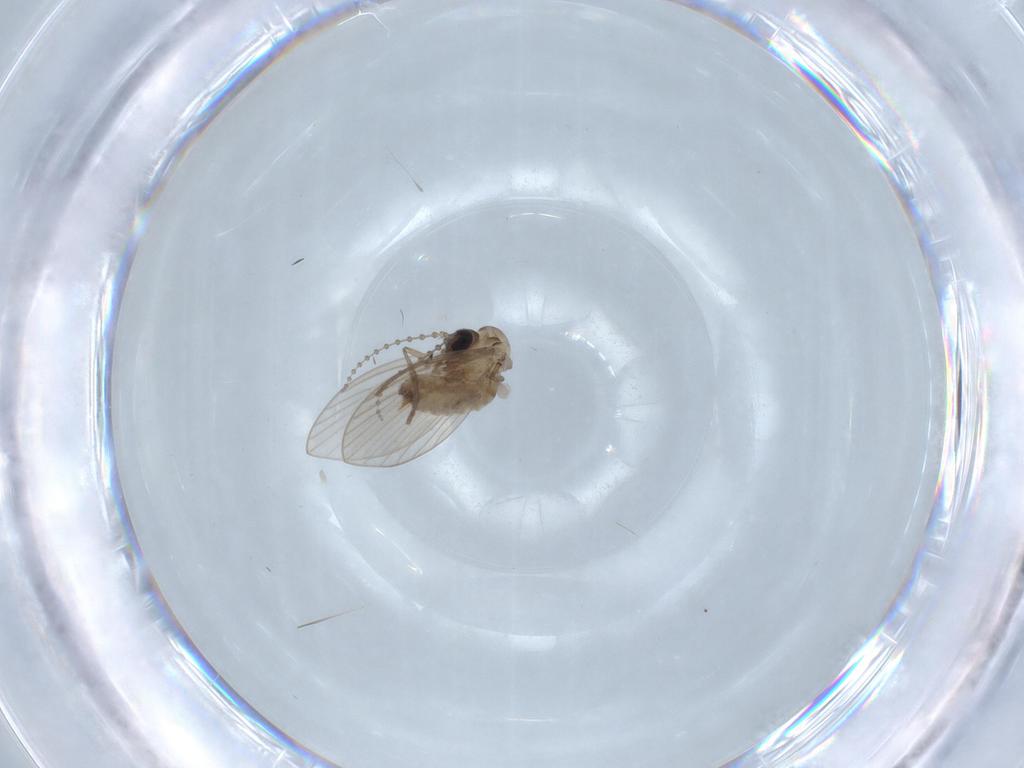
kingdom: Animalia
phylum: Arthropoda
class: Insecta
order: Diptera
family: Psychodidae
